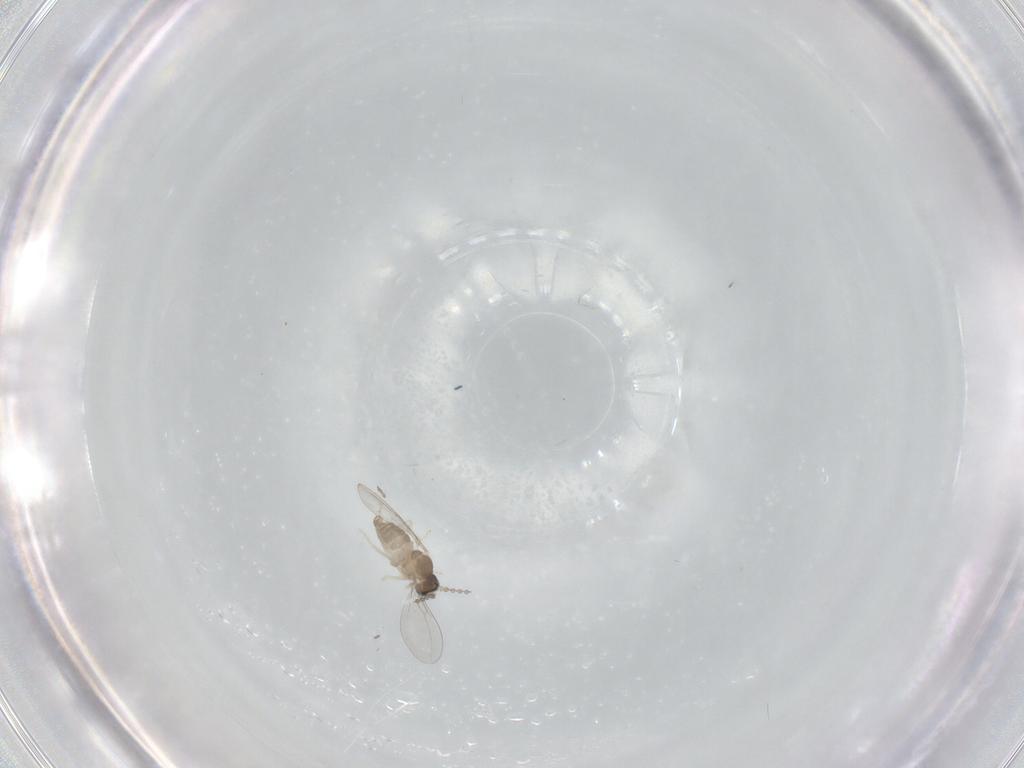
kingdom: Animalia
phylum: Arthropoda
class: Insecta
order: Diptera
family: Cecidomyiidae
